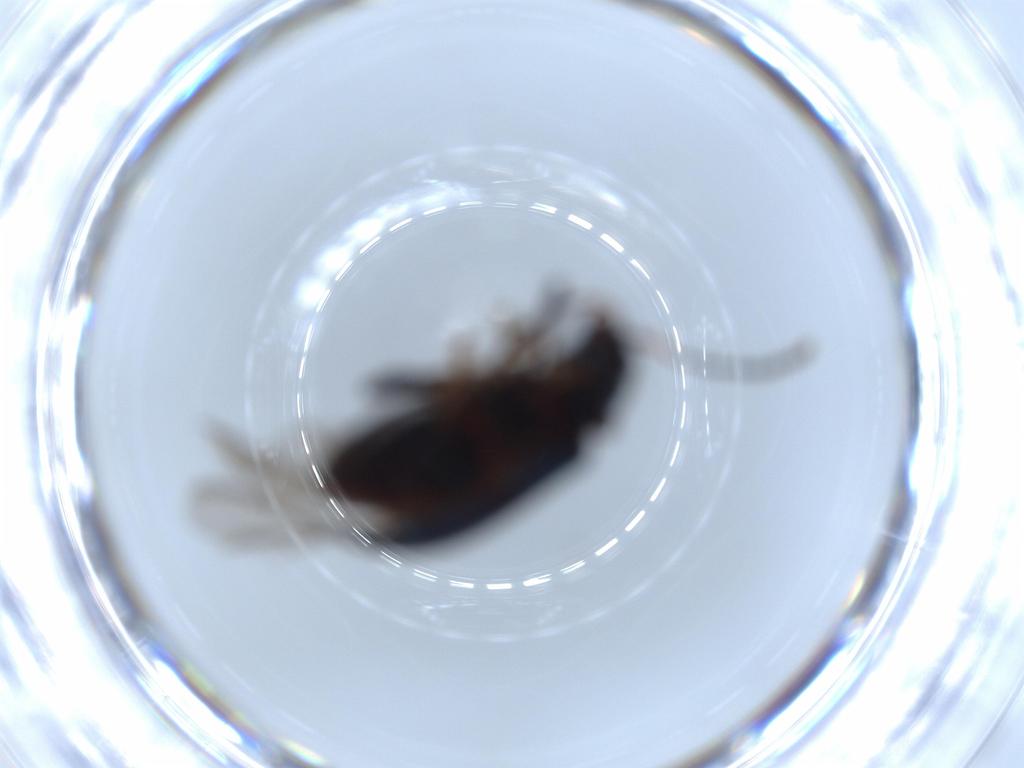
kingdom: Animalia
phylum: Arthropoda
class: Insecta
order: Coleoptera
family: Chrysomelidae
